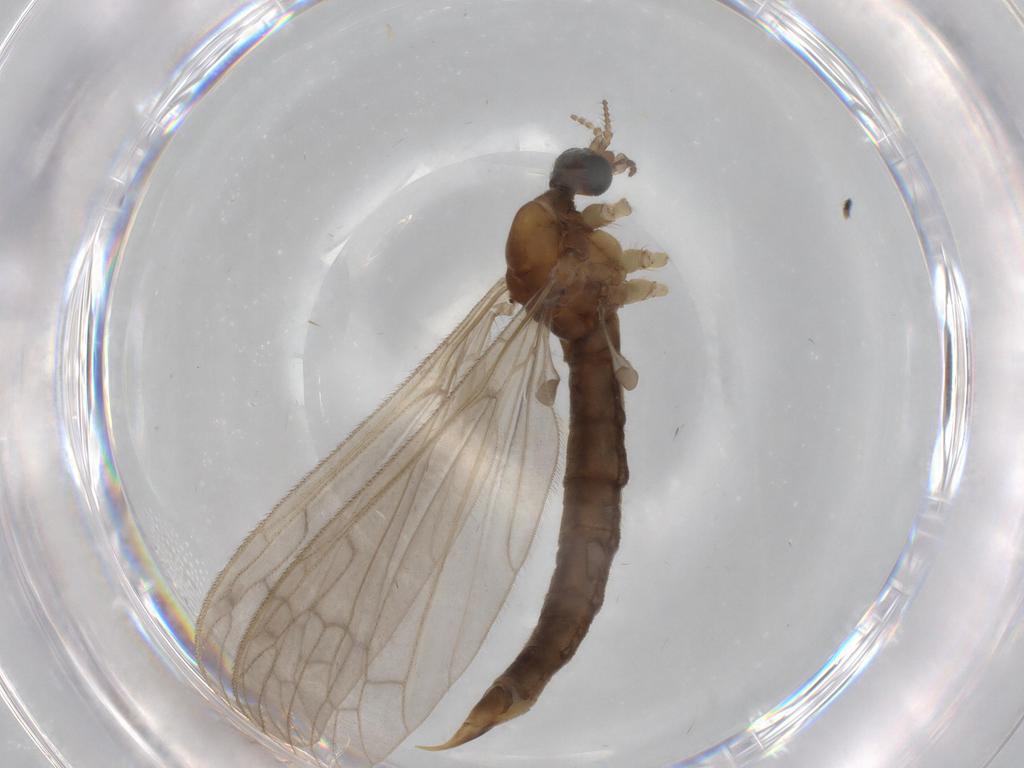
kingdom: Animalia
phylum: Arthropoda
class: Insecta
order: Diptera
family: Limoniidae
